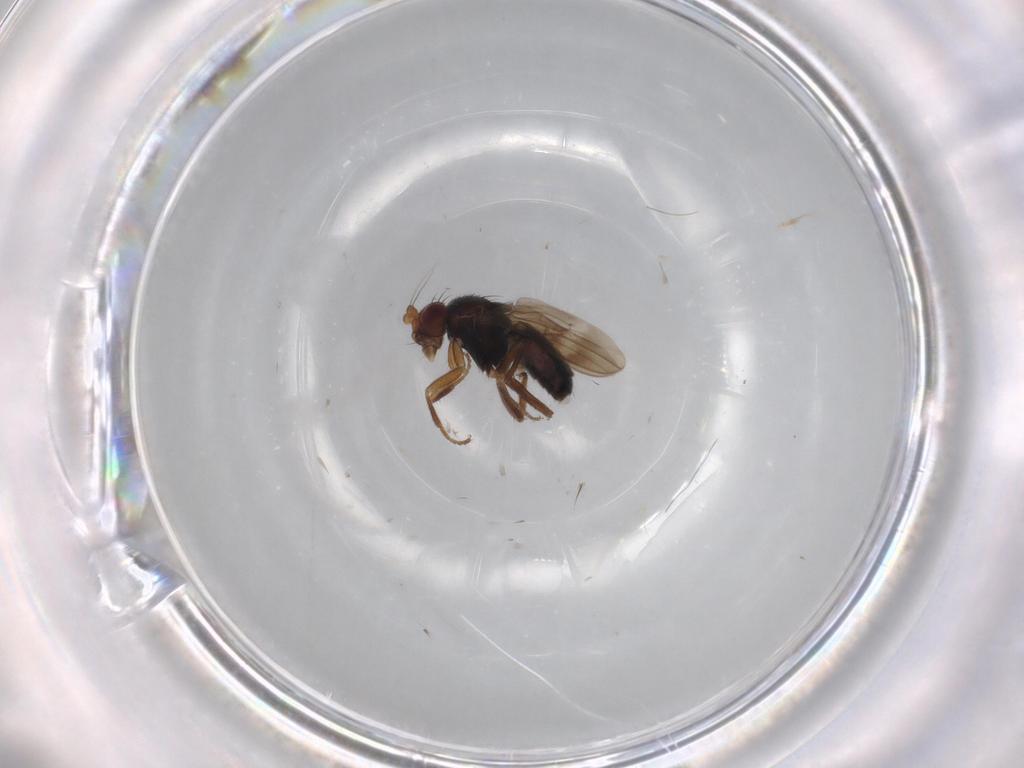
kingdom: Animalia
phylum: Arthropoda
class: Insecta
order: Diptera
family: Sphaeroceridae
